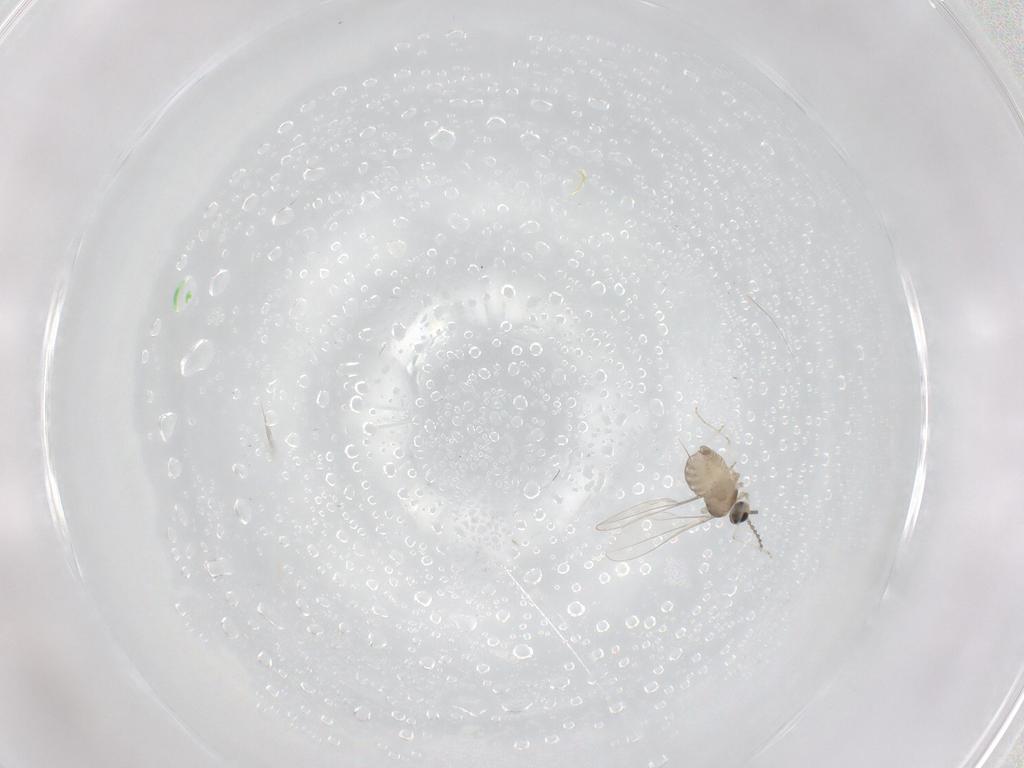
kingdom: Animalia
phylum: Arthropoda
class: Insecta
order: Diptera
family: Cecidomyiidae
